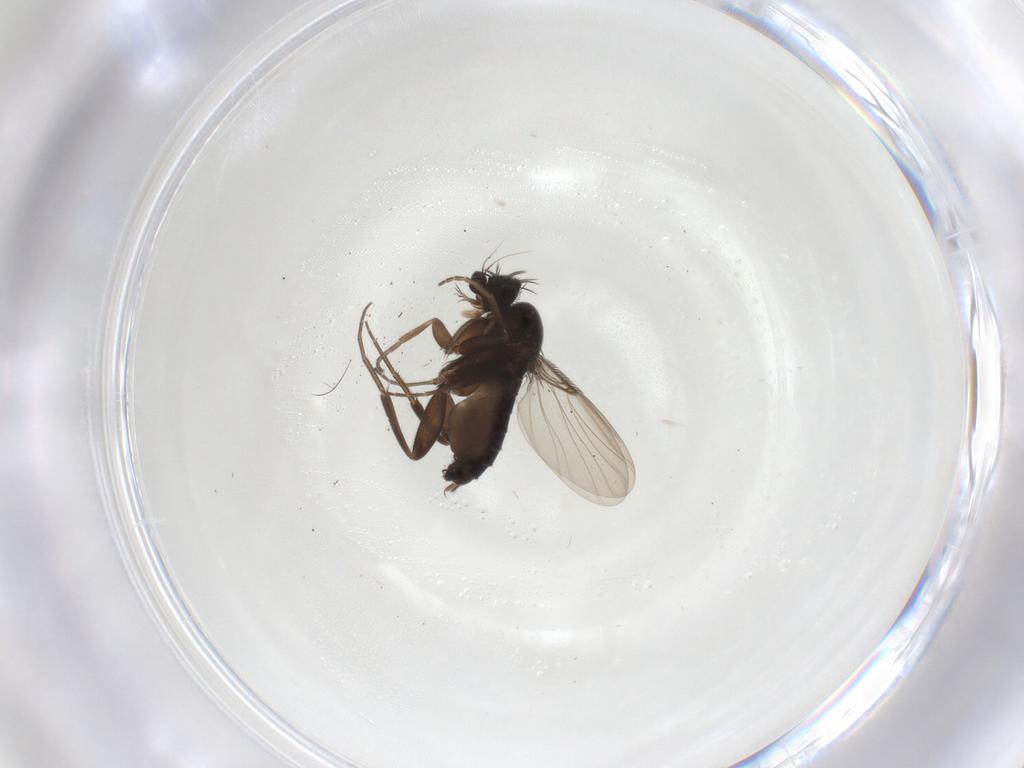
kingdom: Animalia
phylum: Arthropoda
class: Insecta
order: Diptera
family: Phoridae
